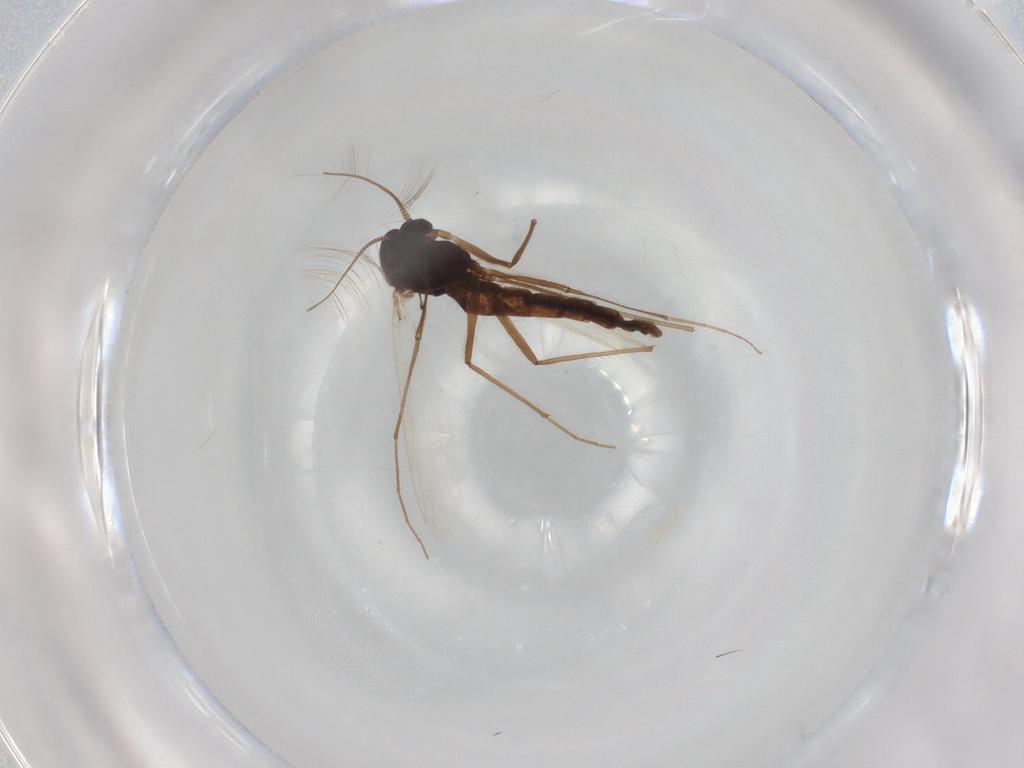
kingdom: Animalia
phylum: Arthropoda
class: Insecta
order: Diptera
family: Chironomidae
